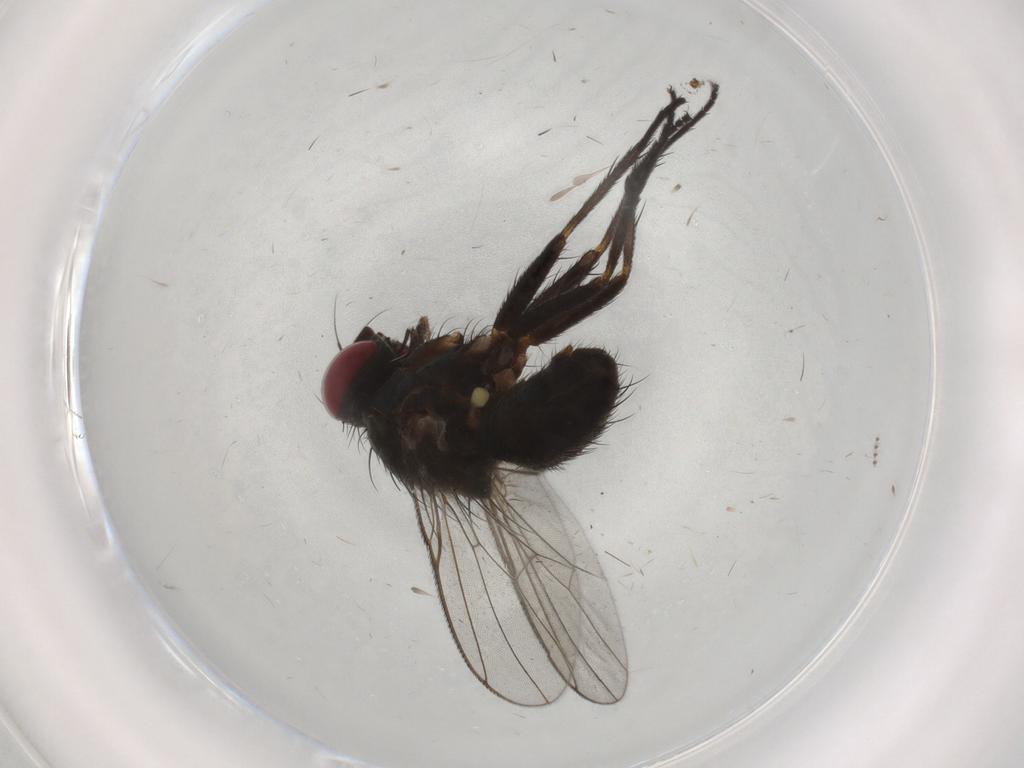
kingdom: Animalia
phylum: Arthropoda
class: Insecta
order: Diptera
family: Muscidae
